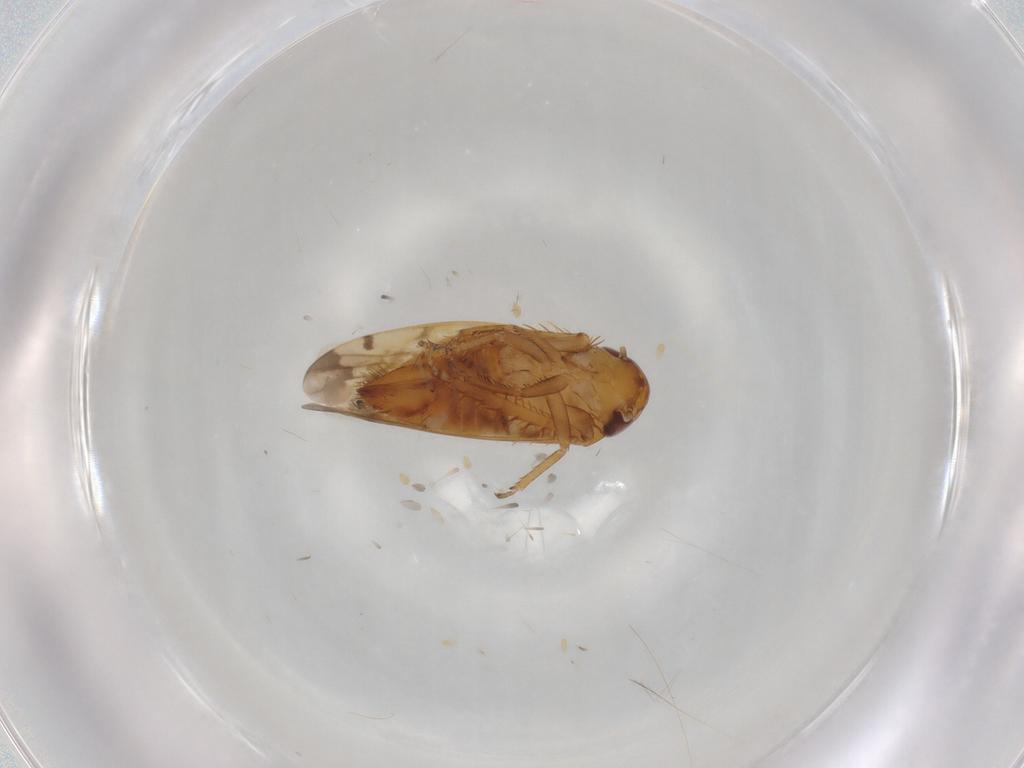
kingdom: Animalia
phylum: Arthropoda
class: Insecta
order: Hemiptera
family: Cicadellidae
